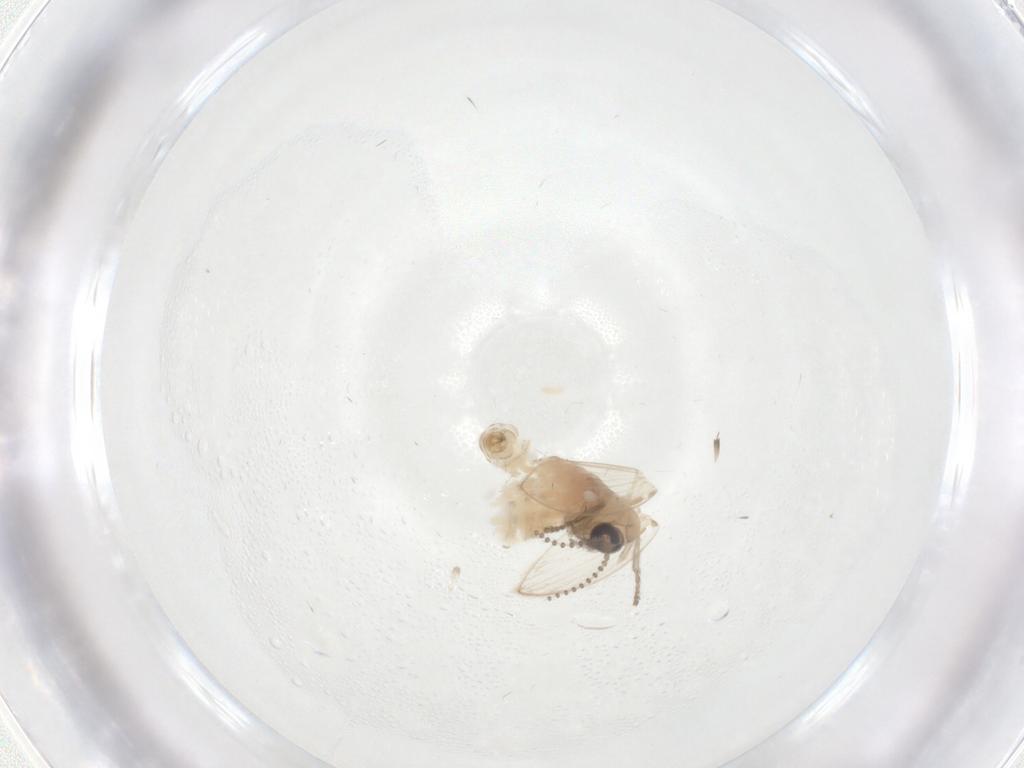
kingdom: Animalia
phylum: Arthropoda
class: Insecta
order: Diptera
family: Psychodidae
